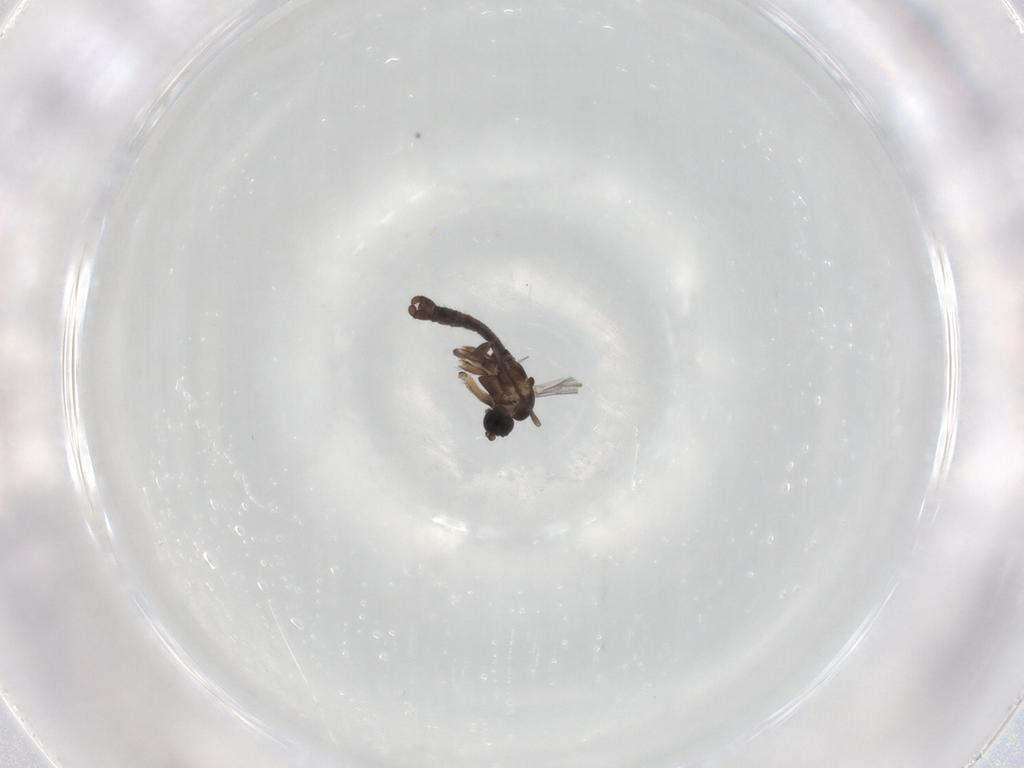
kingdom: Animalia
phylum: Arthropoda
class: Insecta
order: Diptera
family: Sciaridae
